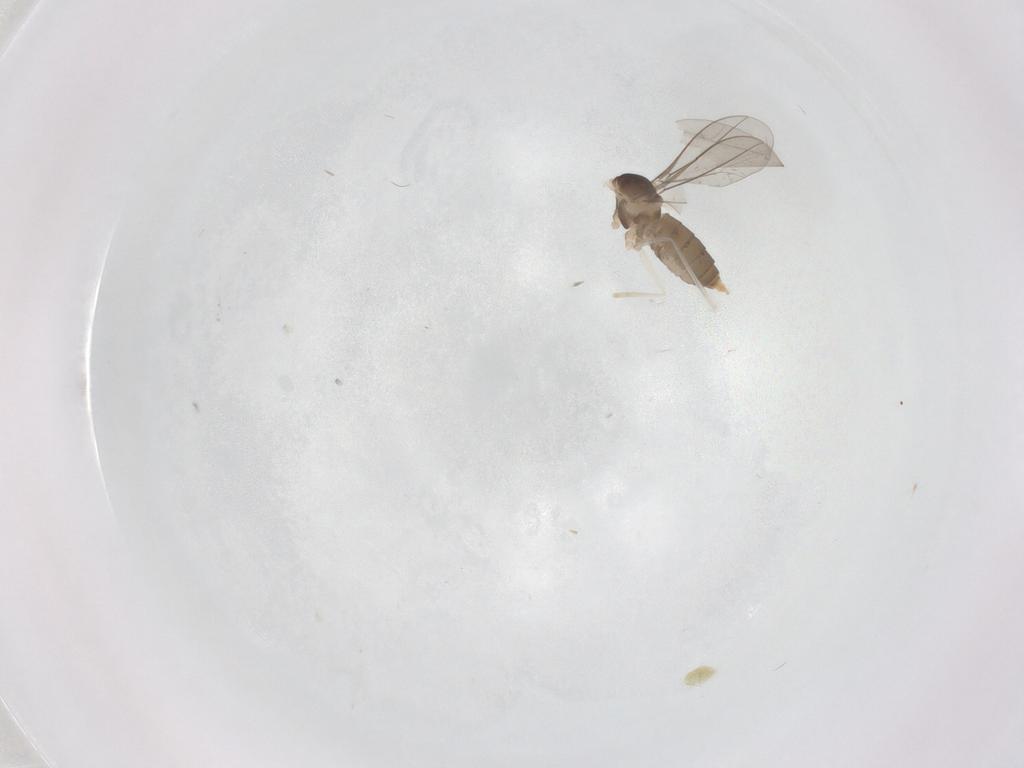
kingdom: Animalia
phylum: Arthropoda
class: Insecta
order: Diptera
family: Cecidomyiidae
